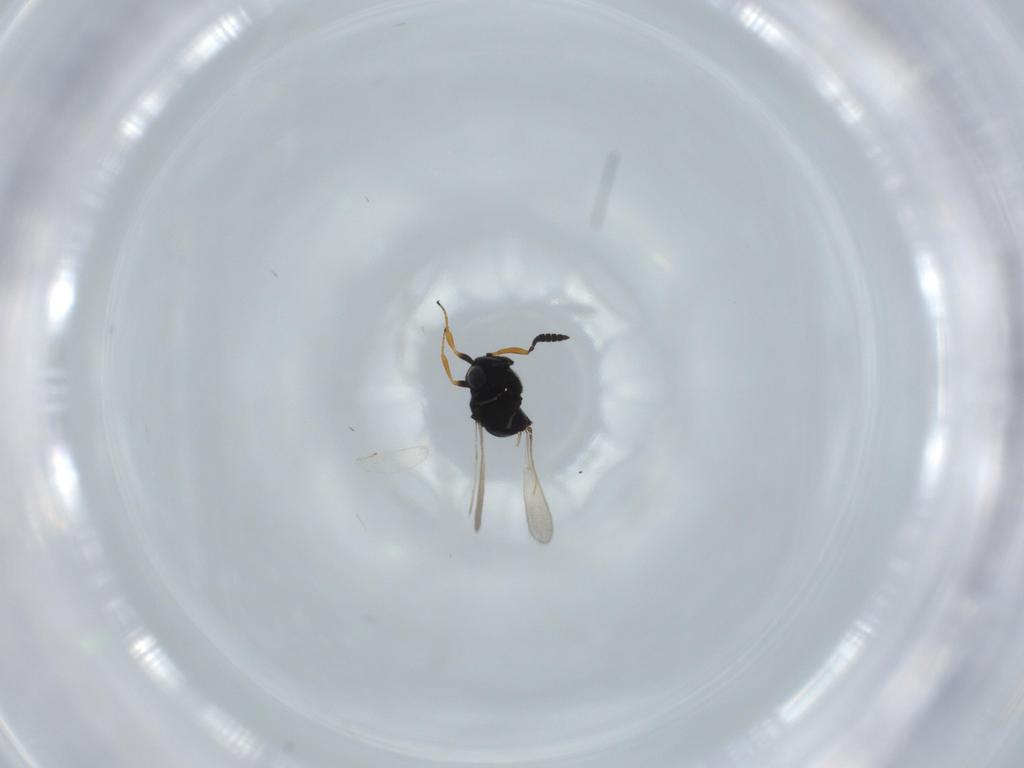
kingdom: Animalia
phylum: Arthropoda
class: Insecta
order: Hymenoptera
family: Scelionidae
